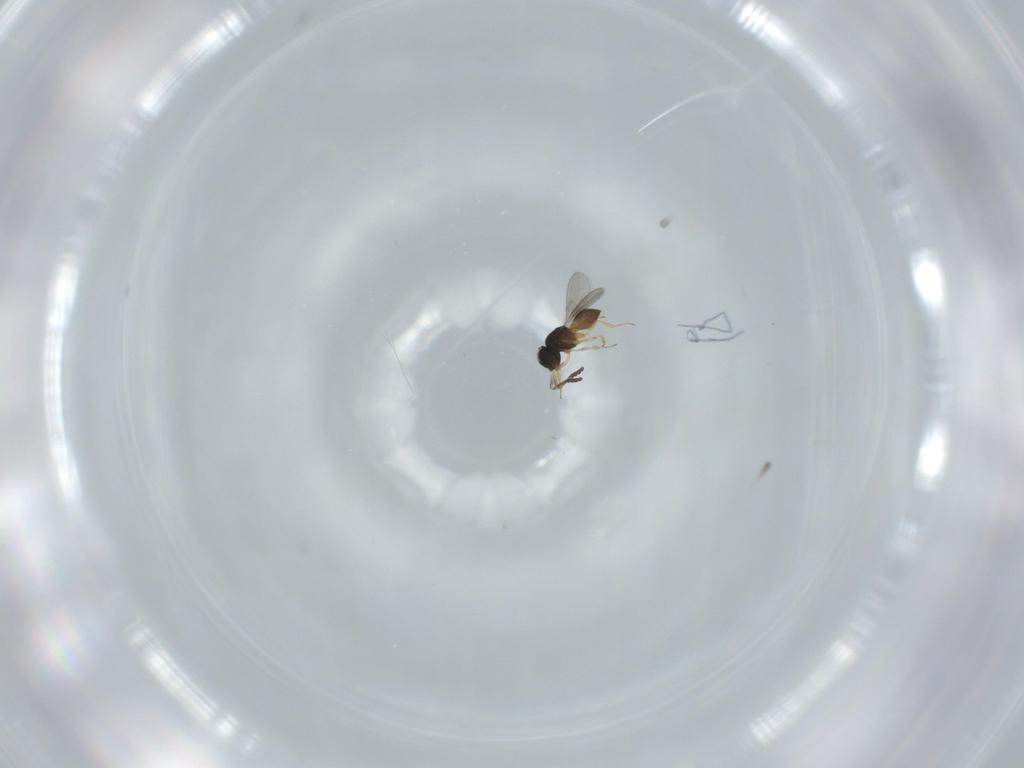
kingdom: Animalia
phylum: Arthropoda
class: Insecta
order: Hymenoptera
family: Scelionidae
